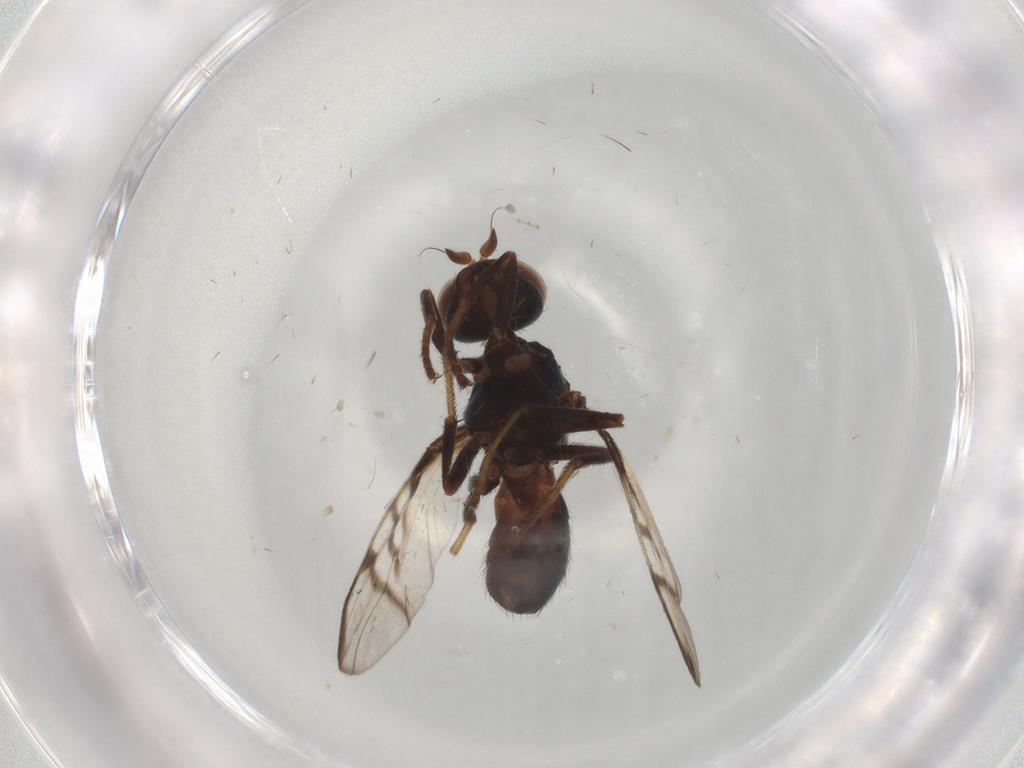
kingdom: Animalia
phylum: Arthropoda
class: Insecta
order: Diptera
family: Platystomatidae
